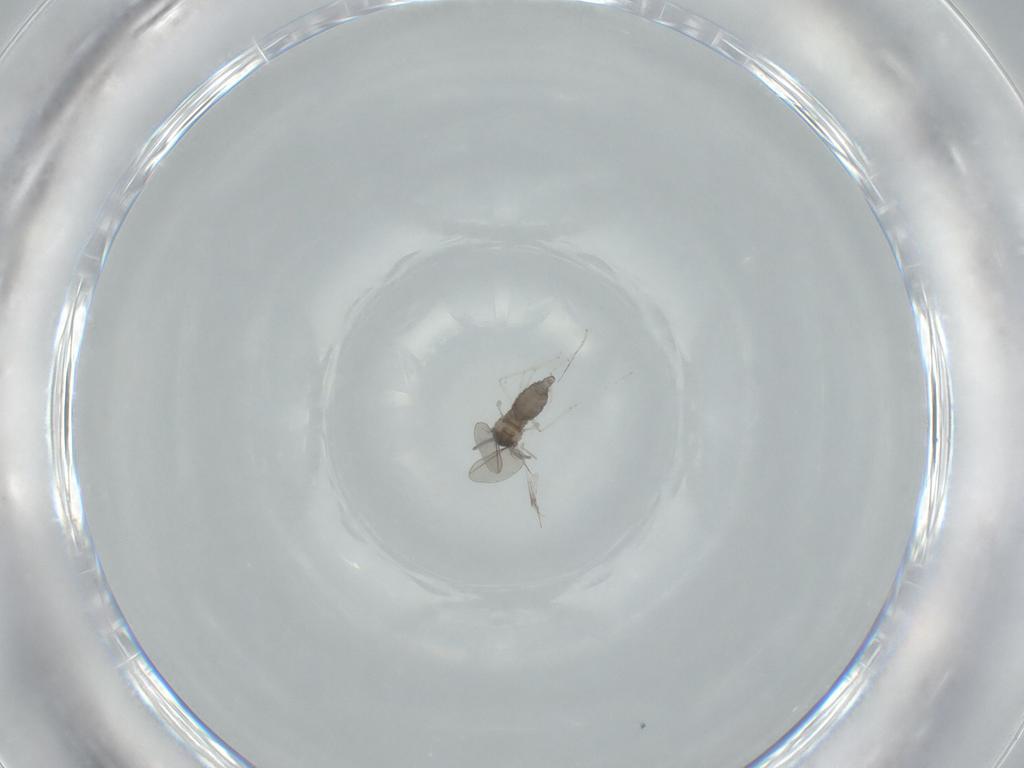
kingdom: Animalia
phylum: Arthropoda
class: Insecta
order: Diptera
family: Cecidomyiidae
